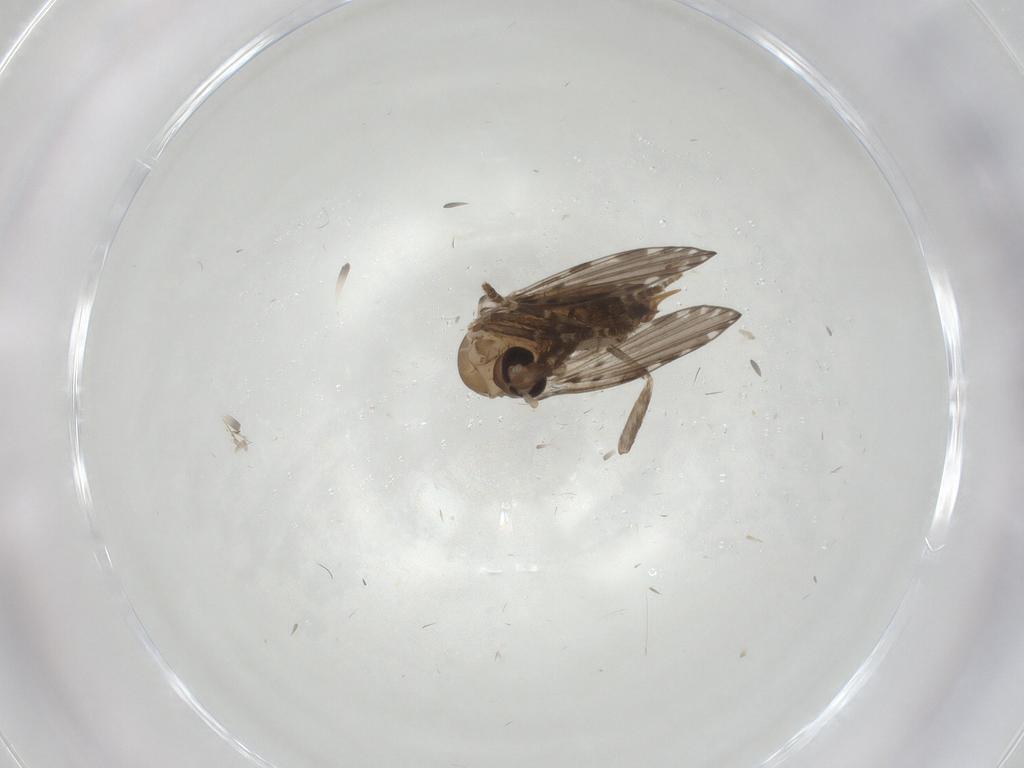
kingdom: Animalia
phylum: Arthropoda
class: Insecta
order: Diptera
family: Psychodidae
